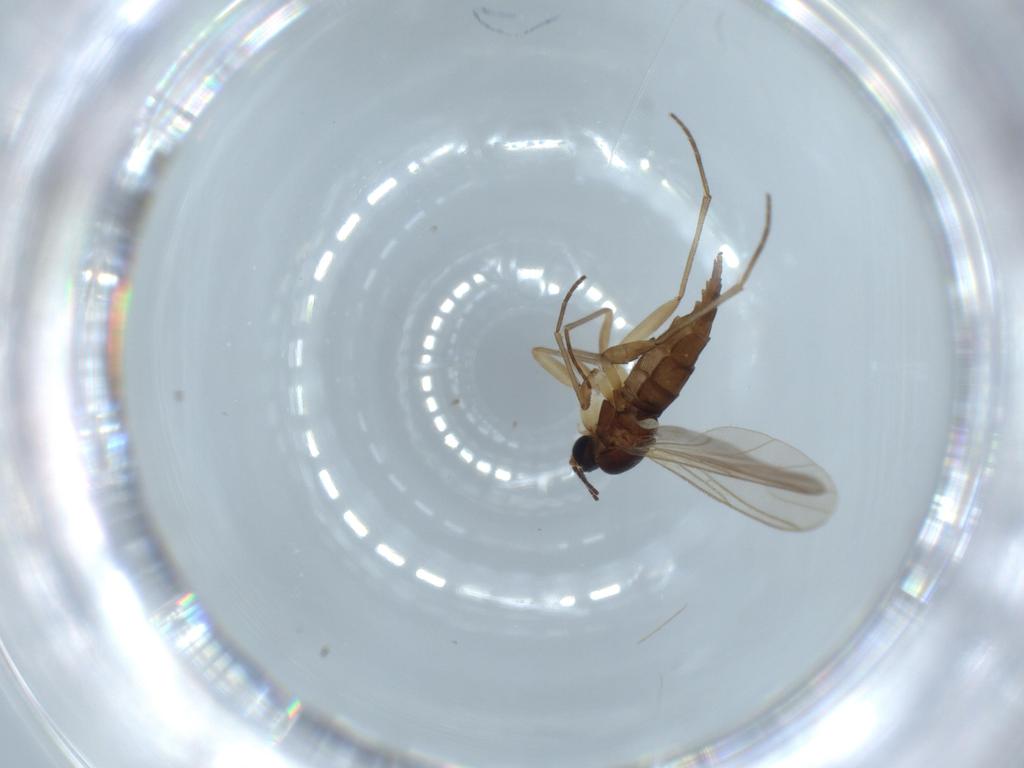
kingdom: Animalia
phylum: Arthropoda
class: Insecta
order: Diptera
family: Sciaridae
